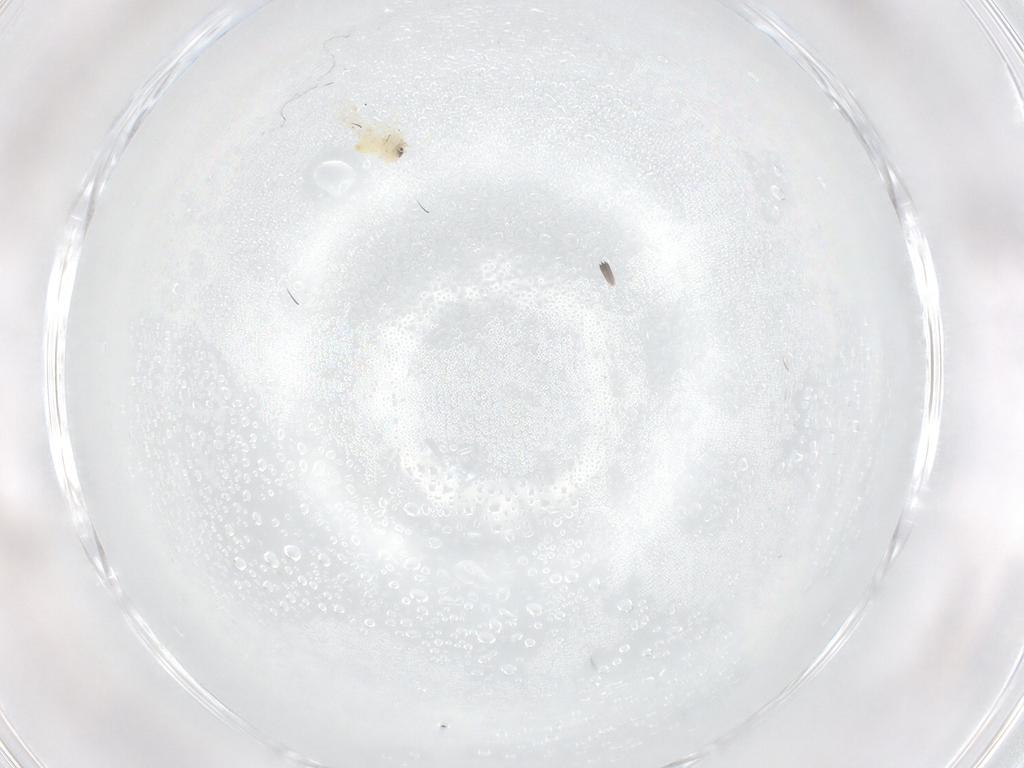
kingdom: Animalia
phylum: Arthropoda
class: Insecta
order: Hemiptera
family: Aleyrodidae
